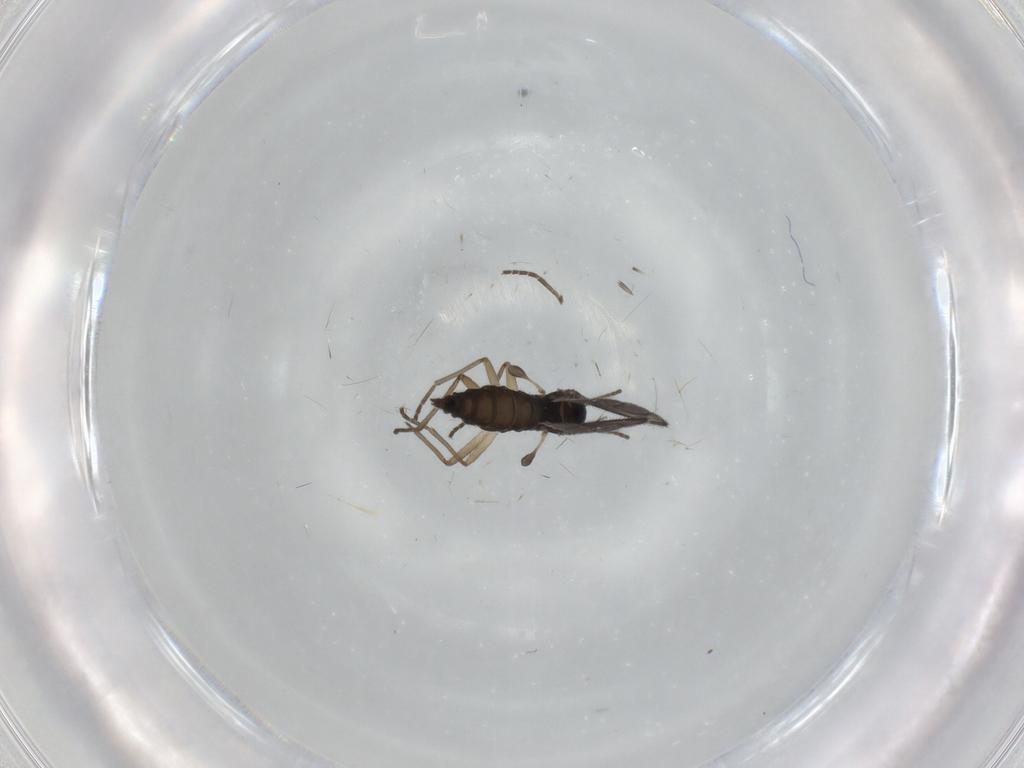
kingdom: Animalia
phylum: Arthropoda
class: Insecta
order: Diptera
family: Sciaridae
